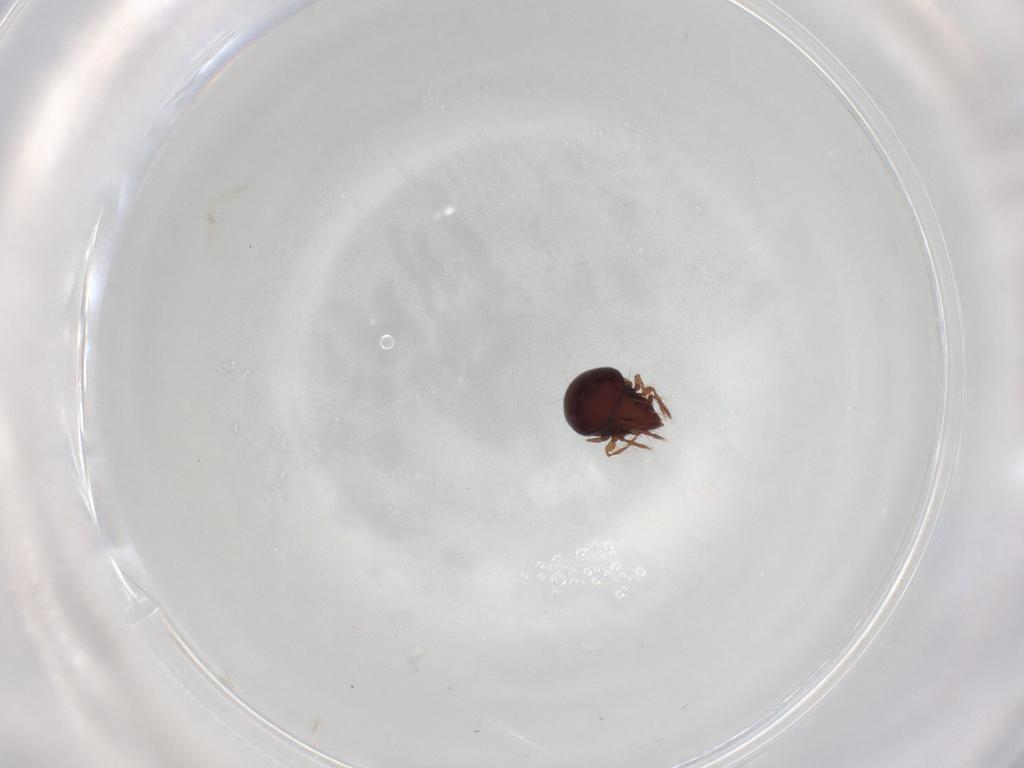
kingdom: Animalia
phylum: Arthropoda
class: Arachnida
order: Sarcoptiformes
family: Ceratoppiidae
